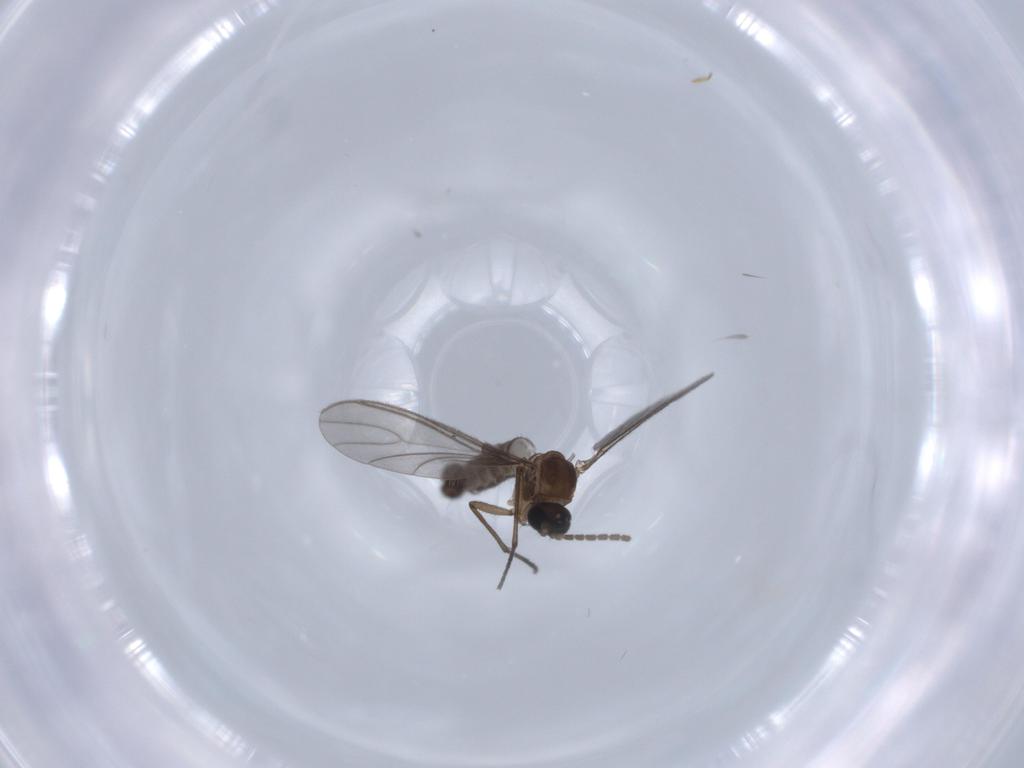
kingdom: Animalia
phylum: Arthropoda
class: Insecta
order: Diptera
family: Sciaridae
